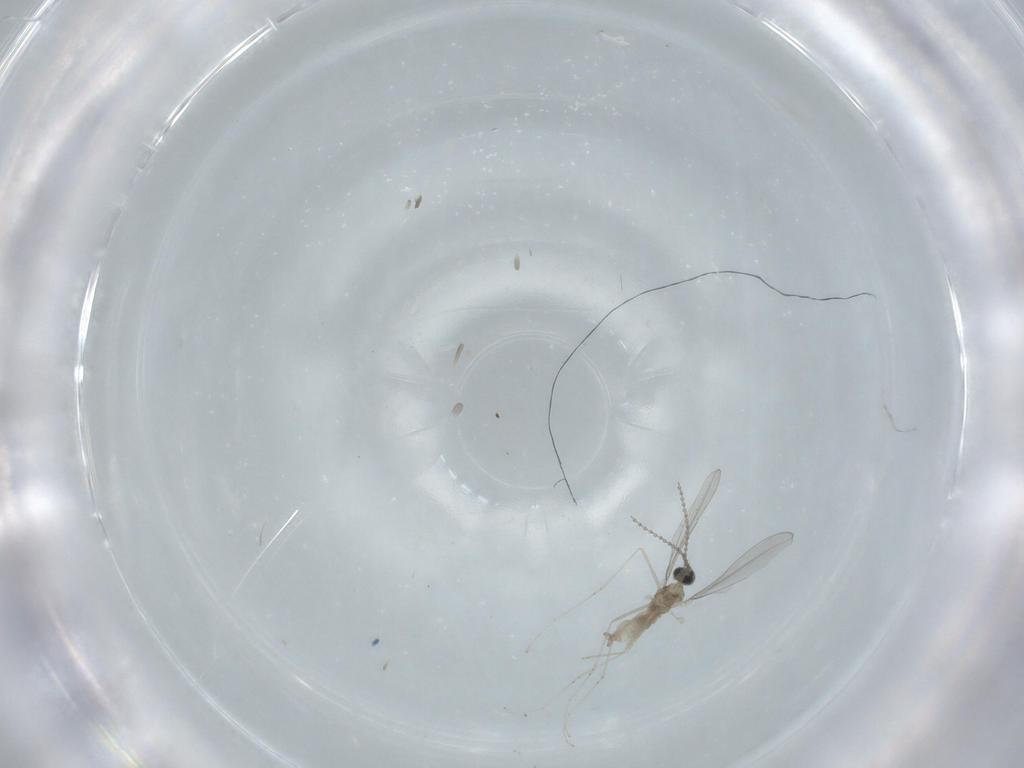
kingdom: Animalia
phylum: Arthropoda
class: Insecta
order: Diptera
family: Cecidomyiidae
